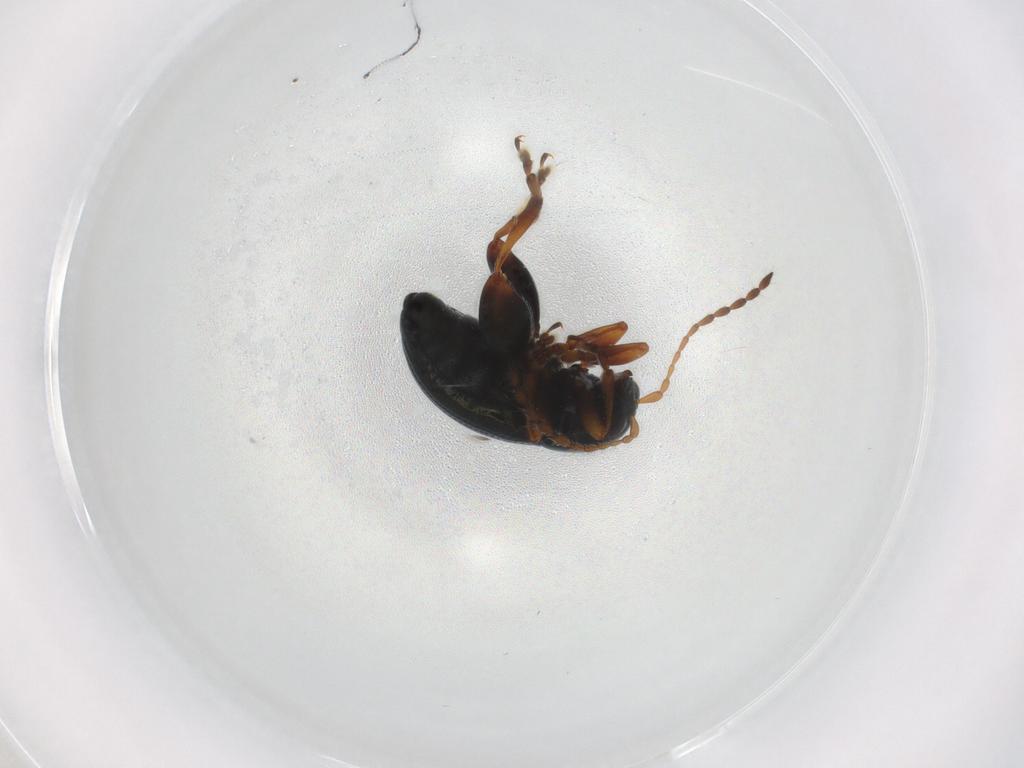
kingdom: Animalia
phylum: Arthropoda
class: Insecta
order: Coleoptera
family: Chrysomelidae
